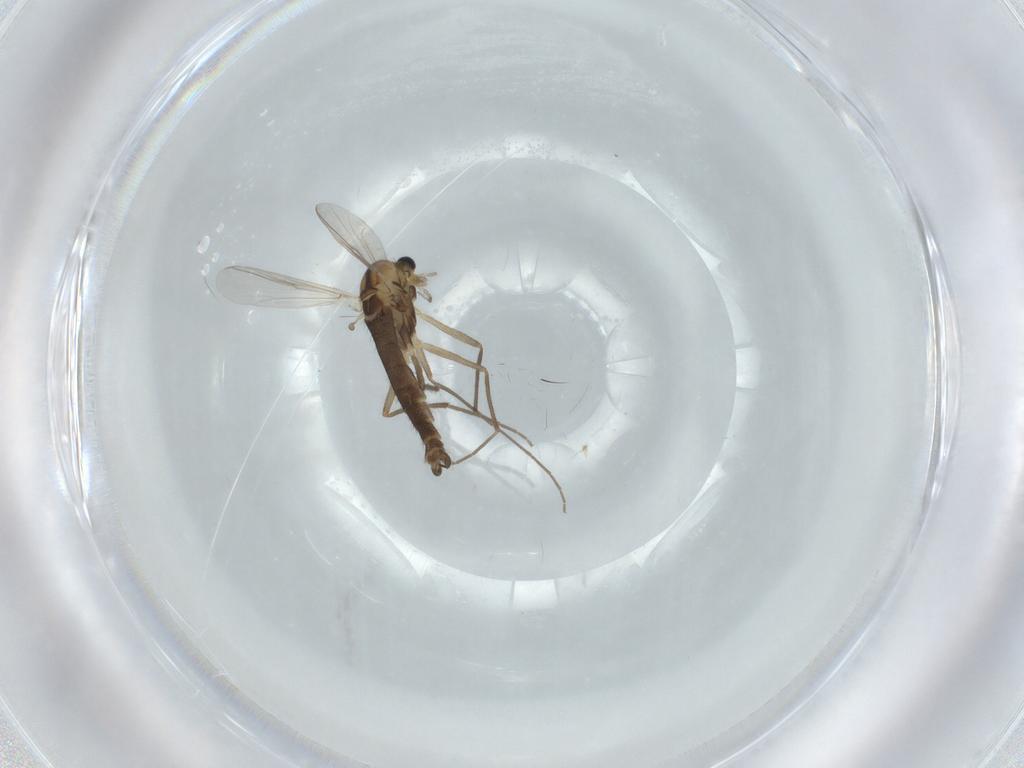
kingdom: Animalia
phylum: Arthropoda
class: Insecta
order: Diptera
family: Chironomidae
